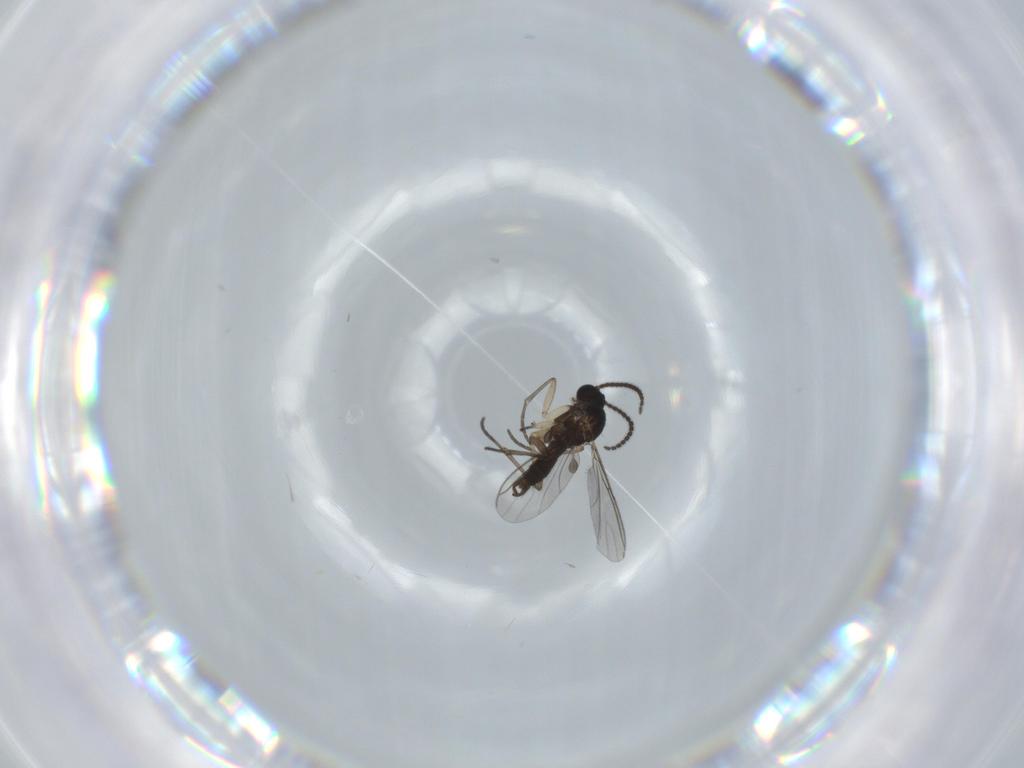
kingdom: Animalia
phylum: Arthropoda
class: Insecta
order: Diptera
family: Sciaridae
